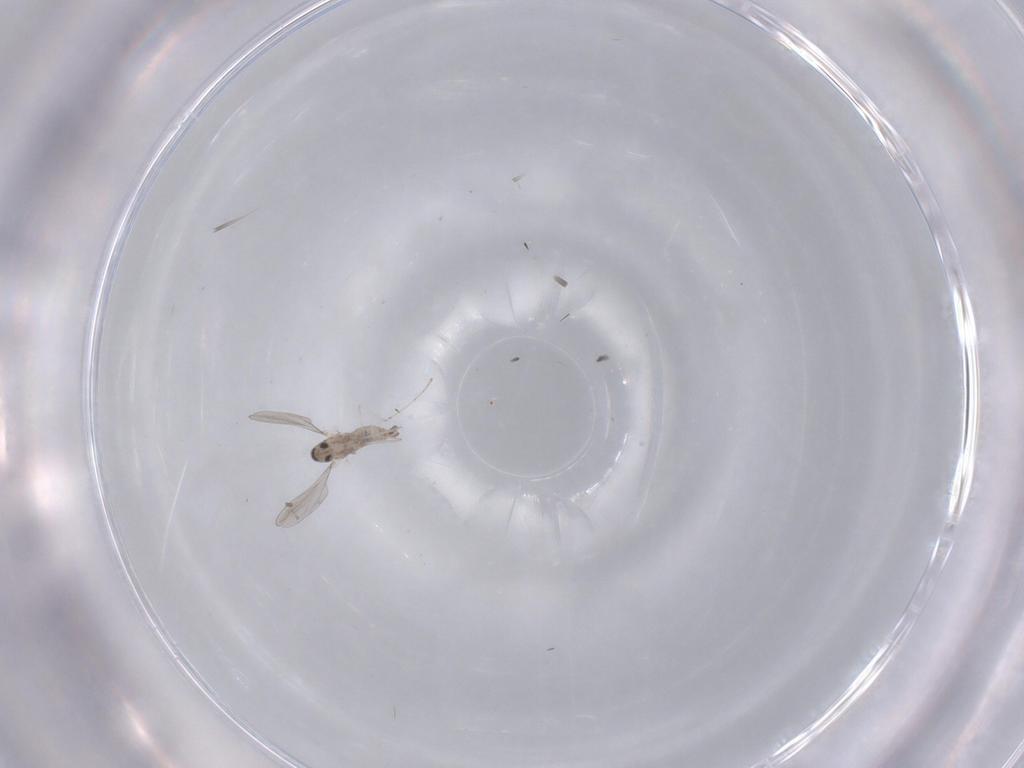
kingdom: Animalia
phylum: Arthropoda
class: Insecta
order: Diptera
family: Cecidomyiidae
